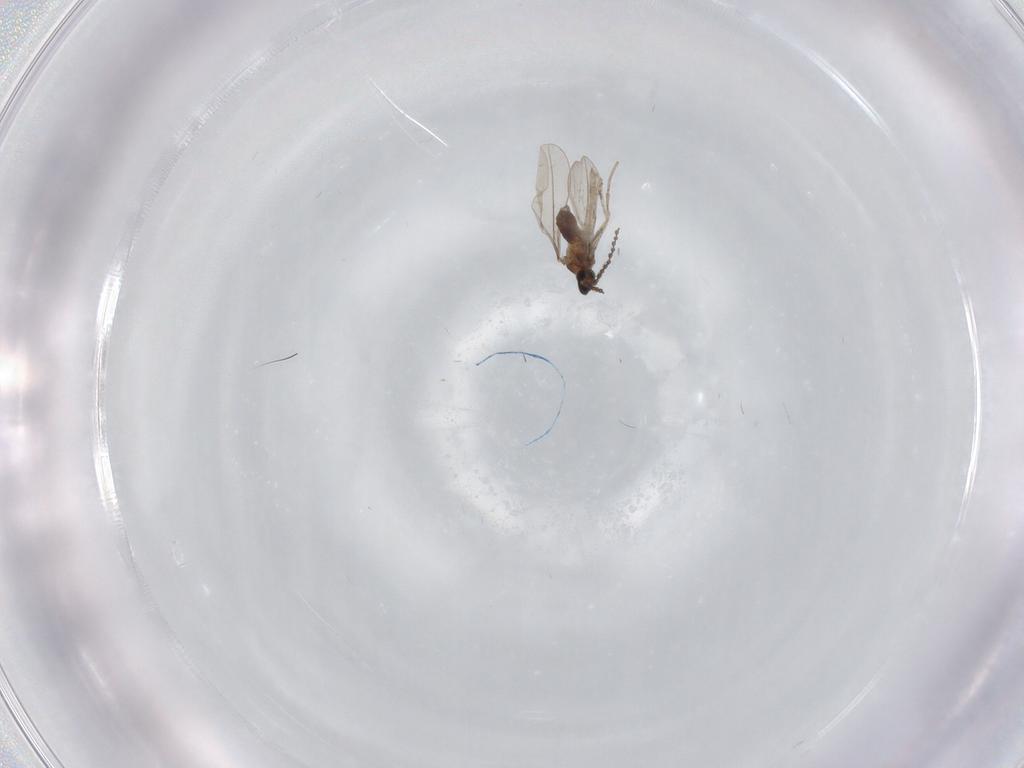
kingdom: Animalia
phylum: Arthropoda
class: Insecta
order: Diptera
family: Cecidomyiidae
